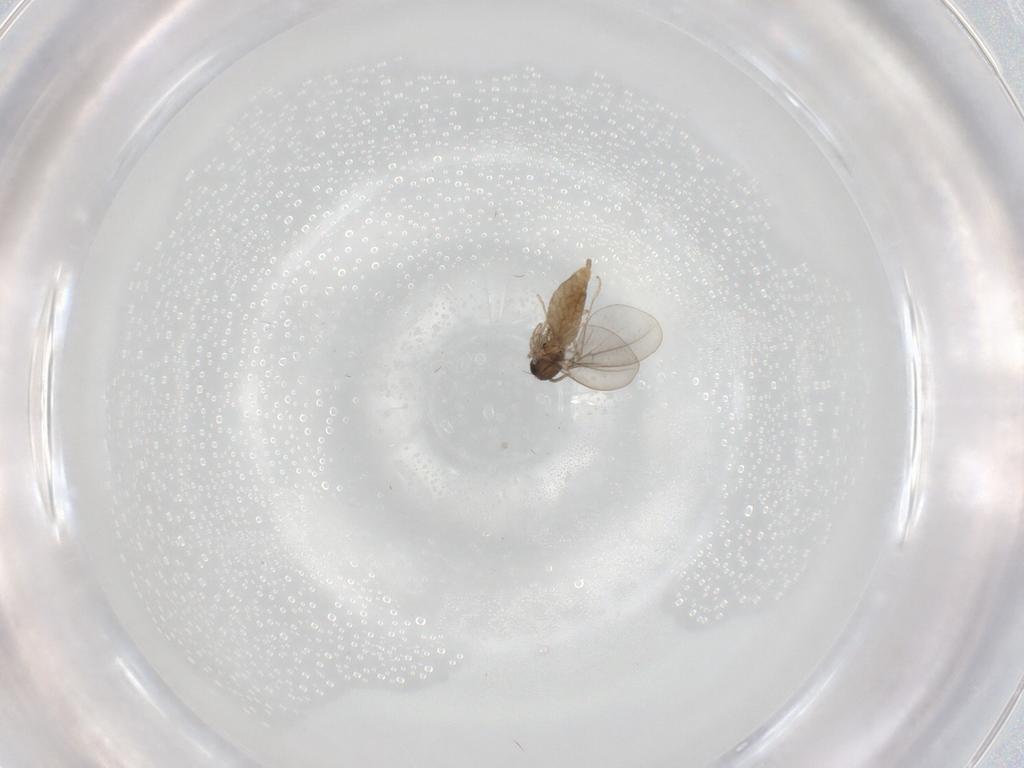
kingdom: Animalia
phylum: Arthropoda
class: Insecta
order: Diptera
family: Cecidomyiidae
